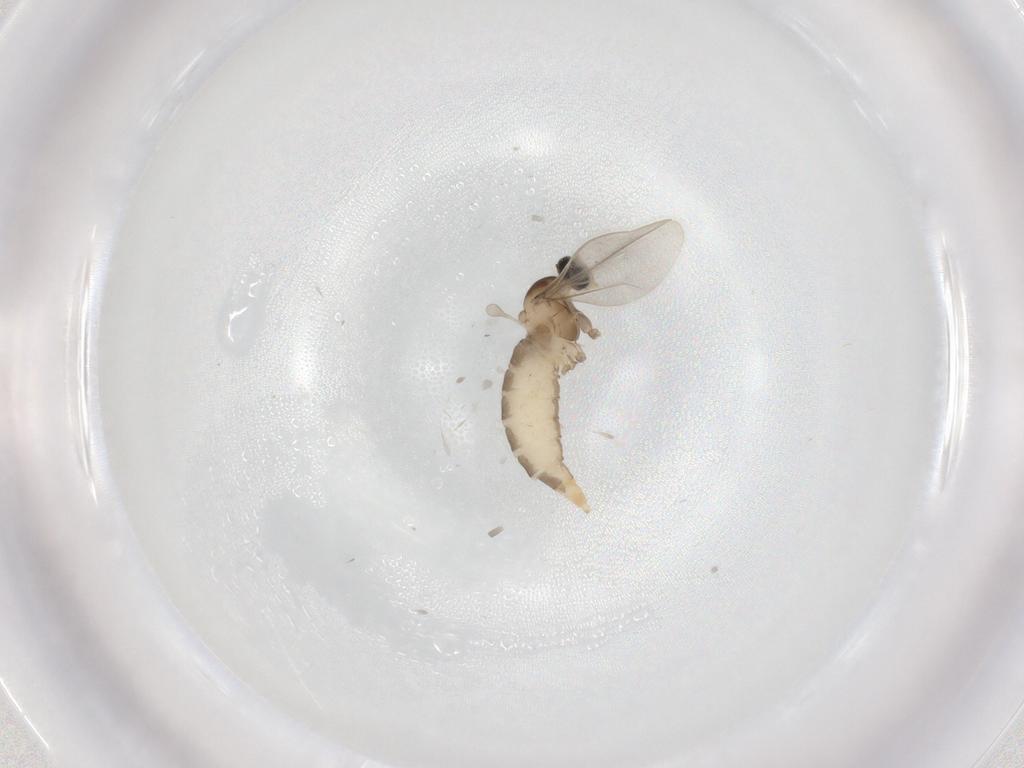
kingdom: Animalia
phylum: Arthropoda
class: Insecta
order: Diptera
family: Cecidomyiidae
